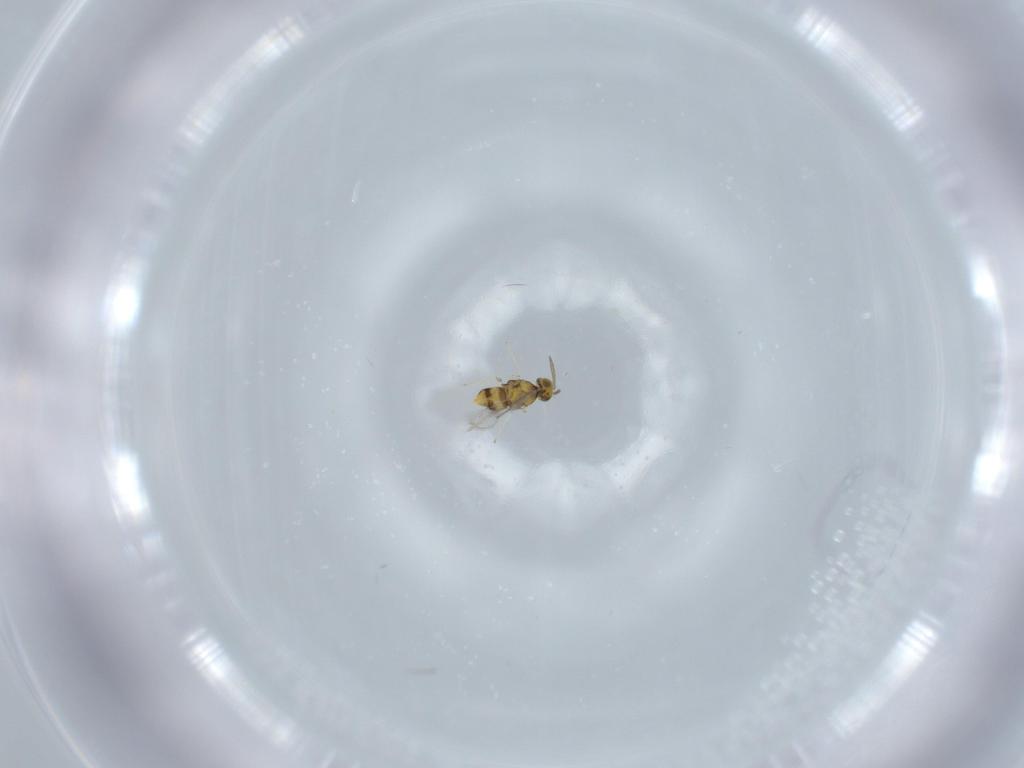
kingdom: Animalia
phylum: Arthropoda
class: Insecta
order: Hymenoptera
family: Aphelinidae
